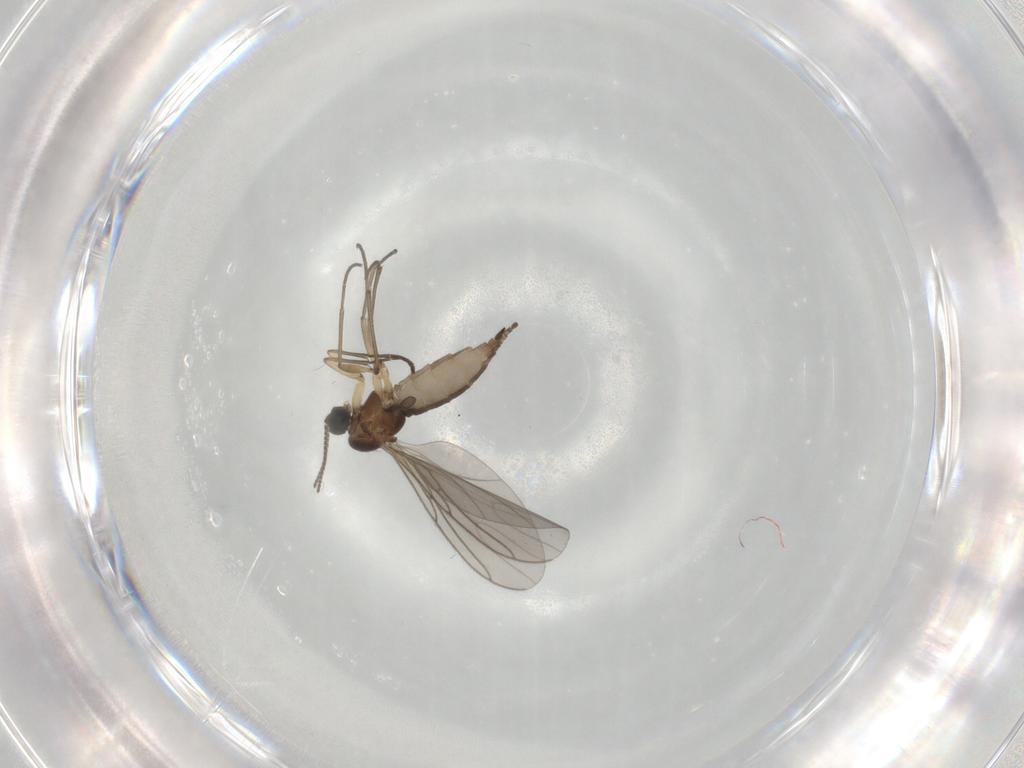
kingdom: Animalia
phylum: Arthropoda
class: Insecta
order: Diptera
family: Sciaridae
